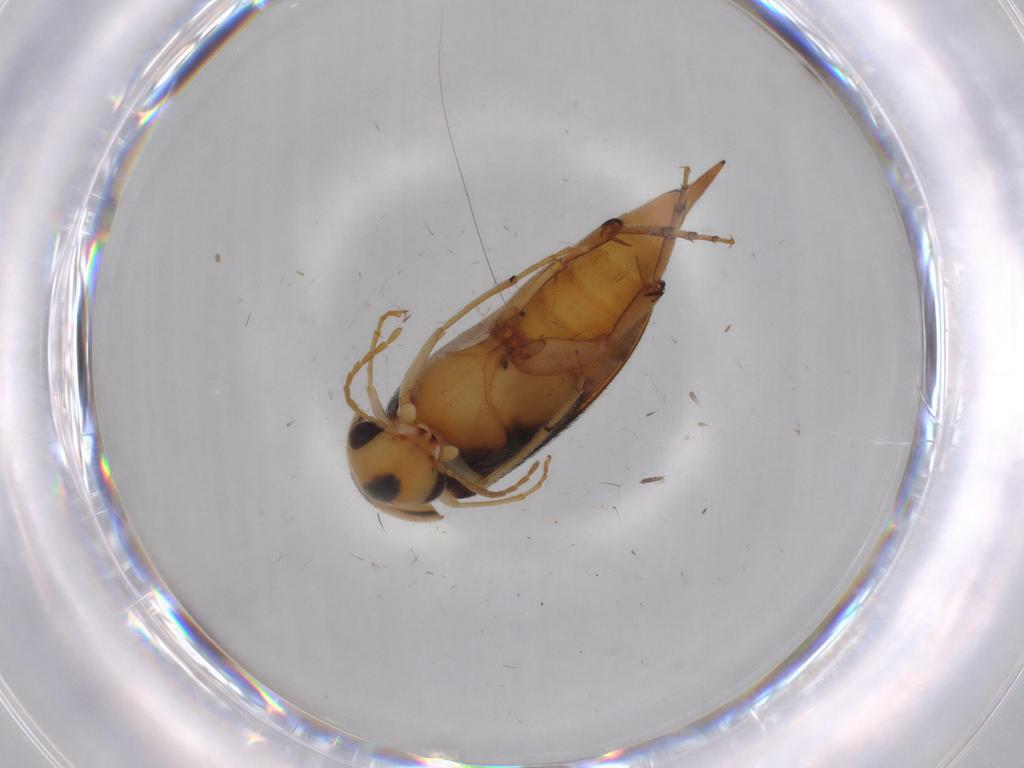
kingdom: Animalia
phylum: Arthropoda
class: Insecta
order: Coleoptera
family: Mordellidae
